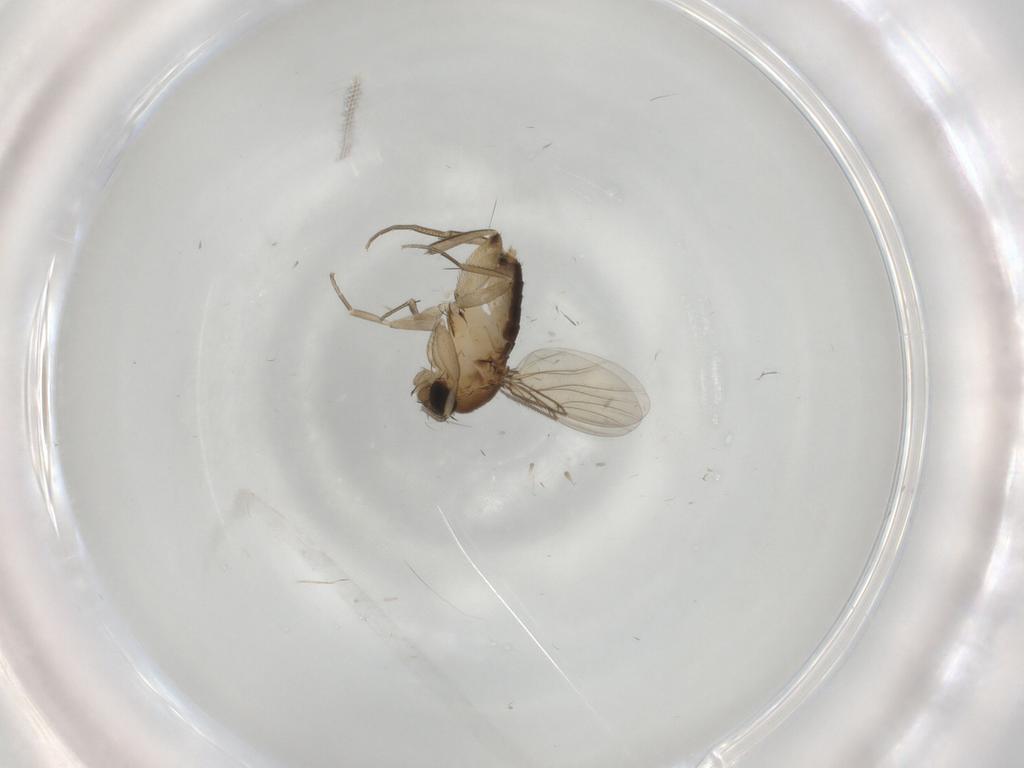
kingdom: Animalia
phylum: Arthropoda
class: Insecta
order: Diptera
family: Phoridae
